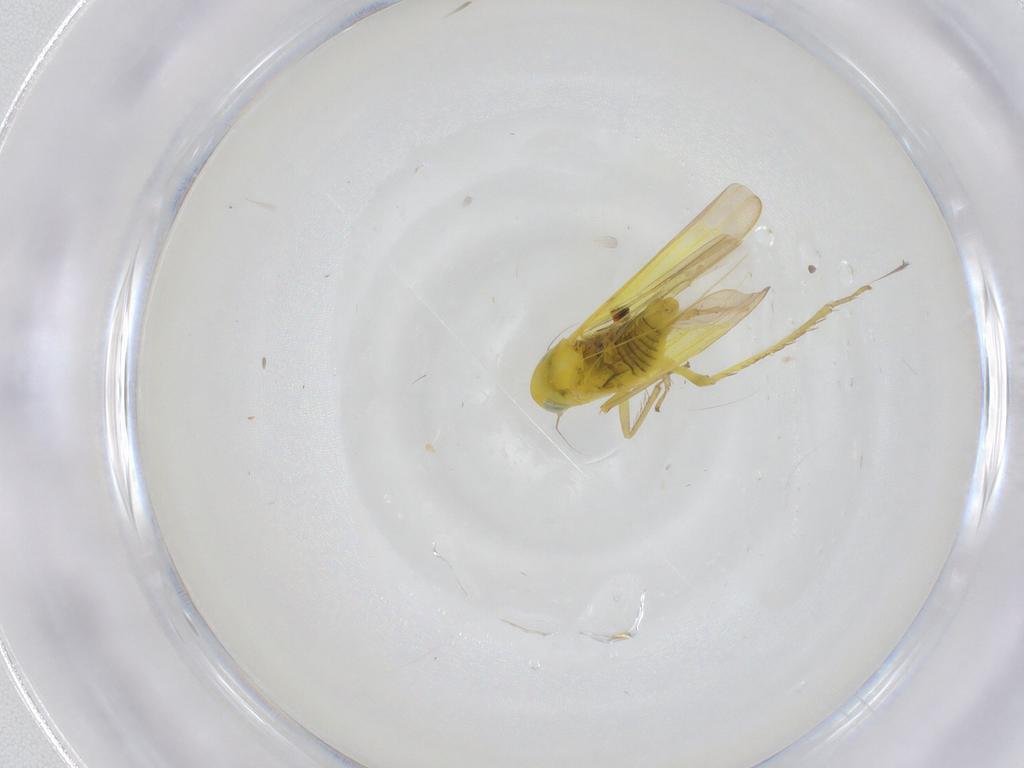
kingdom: Animalia
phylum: Arthropoda
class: Insecta
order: Hemiptera
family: Cicadellidae
